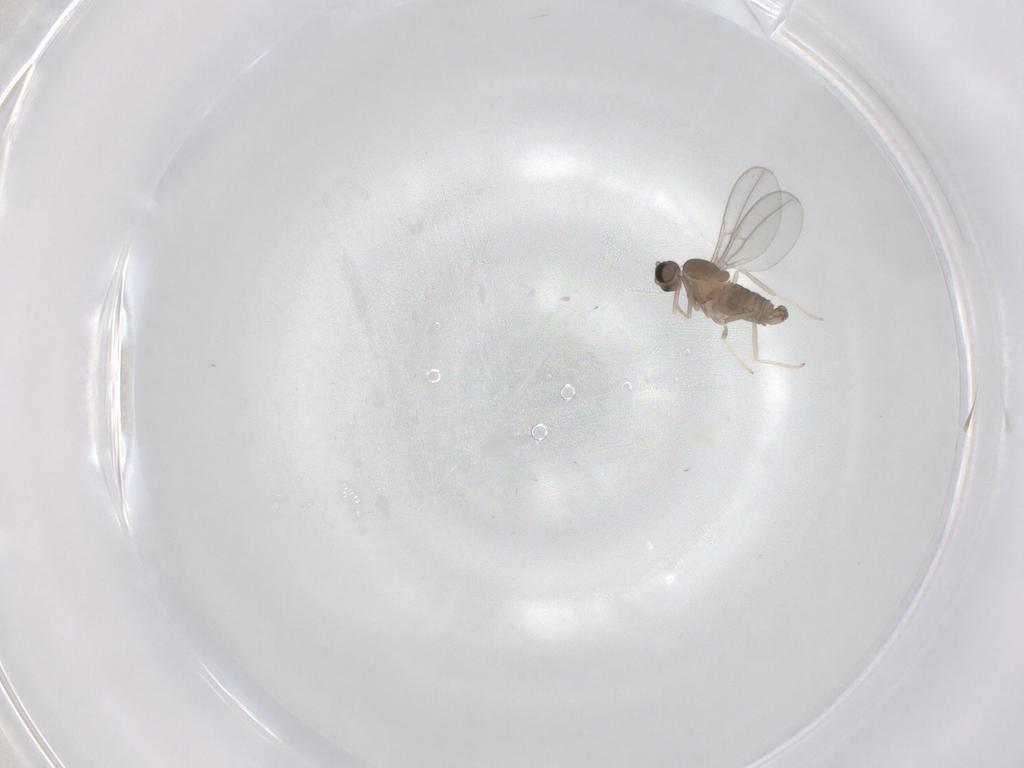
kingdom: Animalia
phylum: Arthropoda
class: Insecta
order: Diptera
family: Cecidomyiidae
